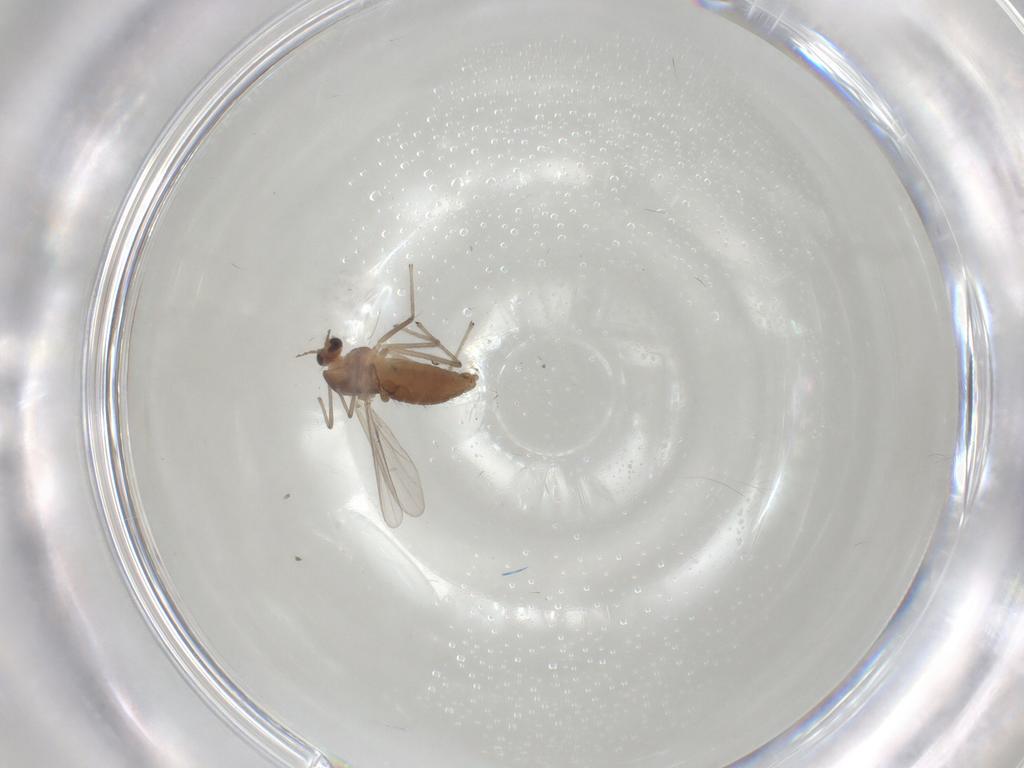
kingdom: Animalia
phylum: Arthropoda
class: Insecta
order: Diptera
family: Chironomidae
